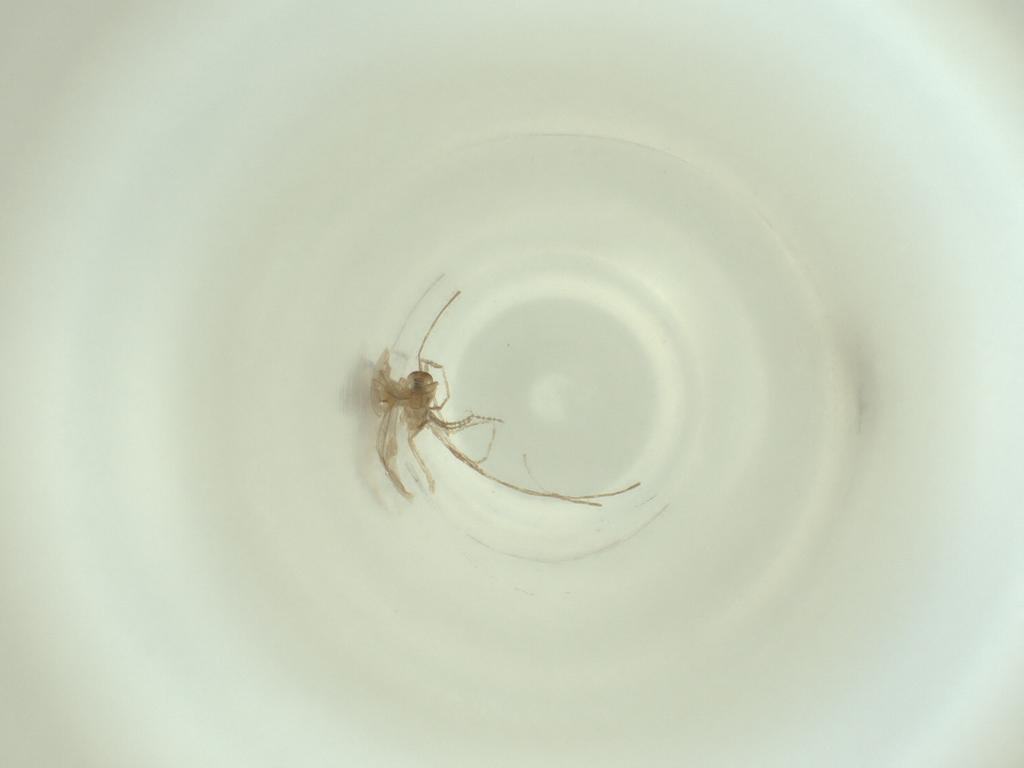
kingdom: Animalia
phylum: Arthropoda
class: Insecta
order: Diptera
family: Cecidomyiidae
